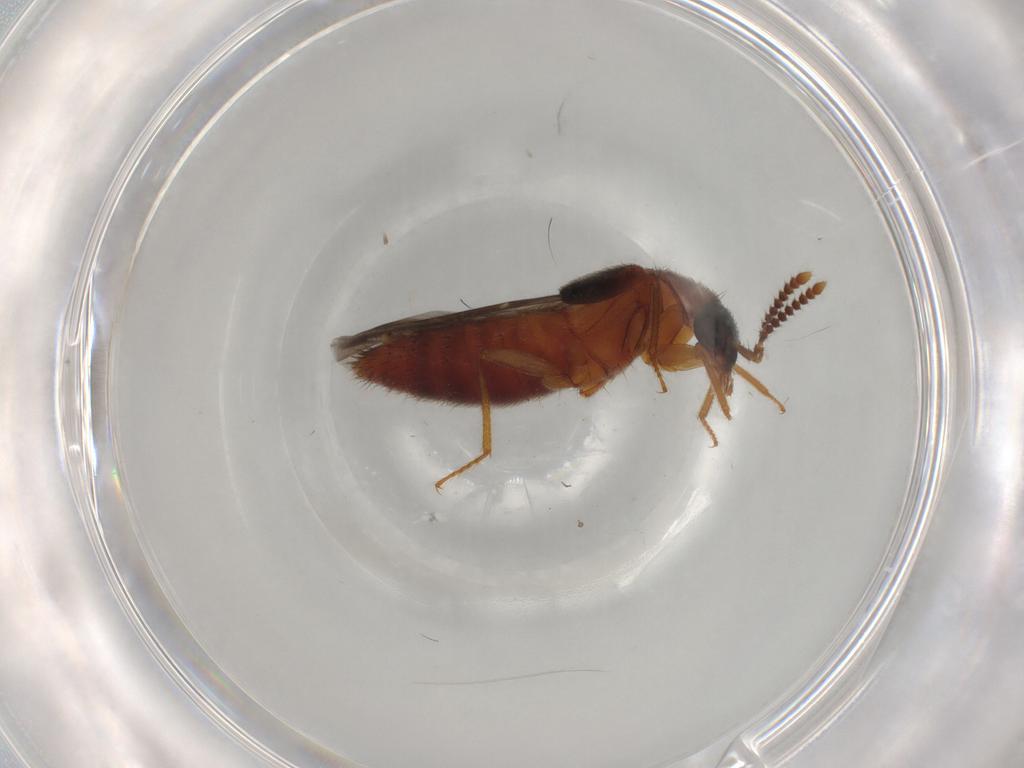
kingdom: Animalia
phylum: Arthropoda
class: Insecta
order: Coleoptera
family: Staphylinidae
